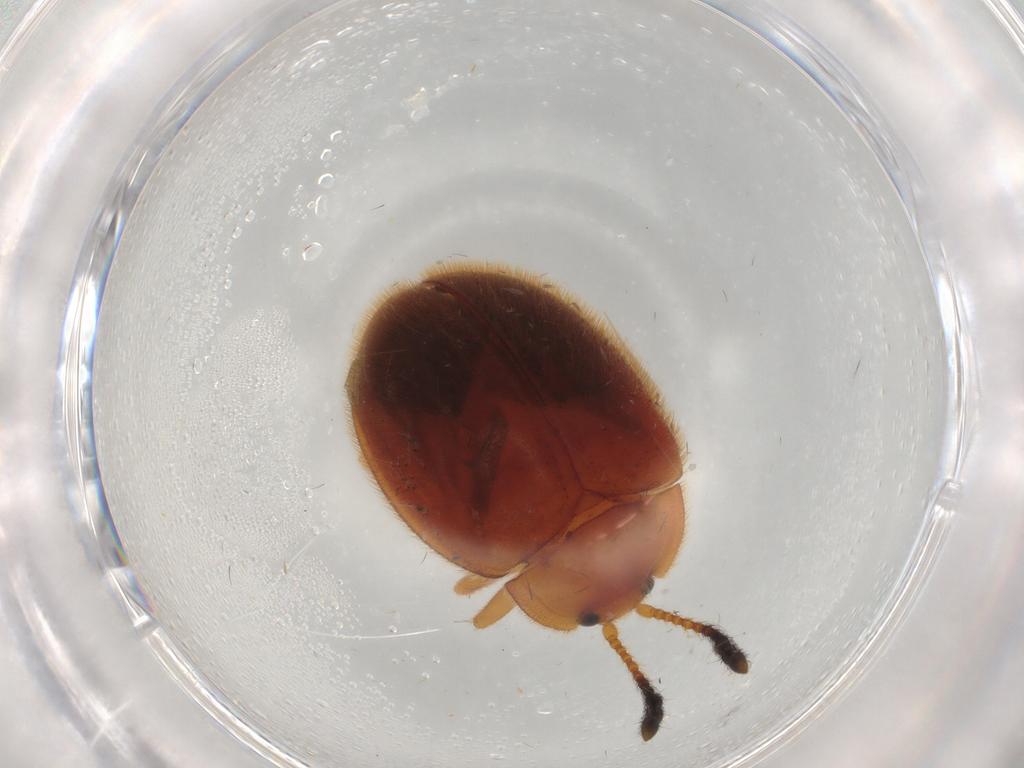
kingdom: Animalia
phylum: Arthropoda
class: Insecta
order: Coleoptera
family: Endomychidae
